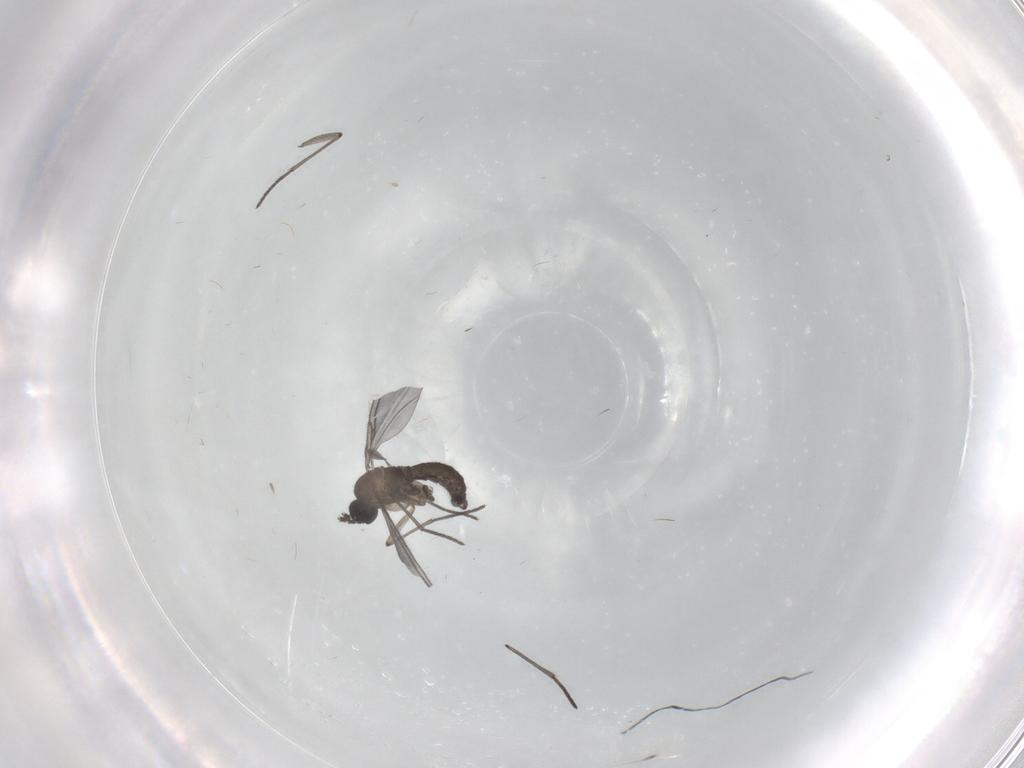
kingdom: Animalia
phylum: Arthropoda
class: Insecta
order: Diptera
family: Sciaridae
